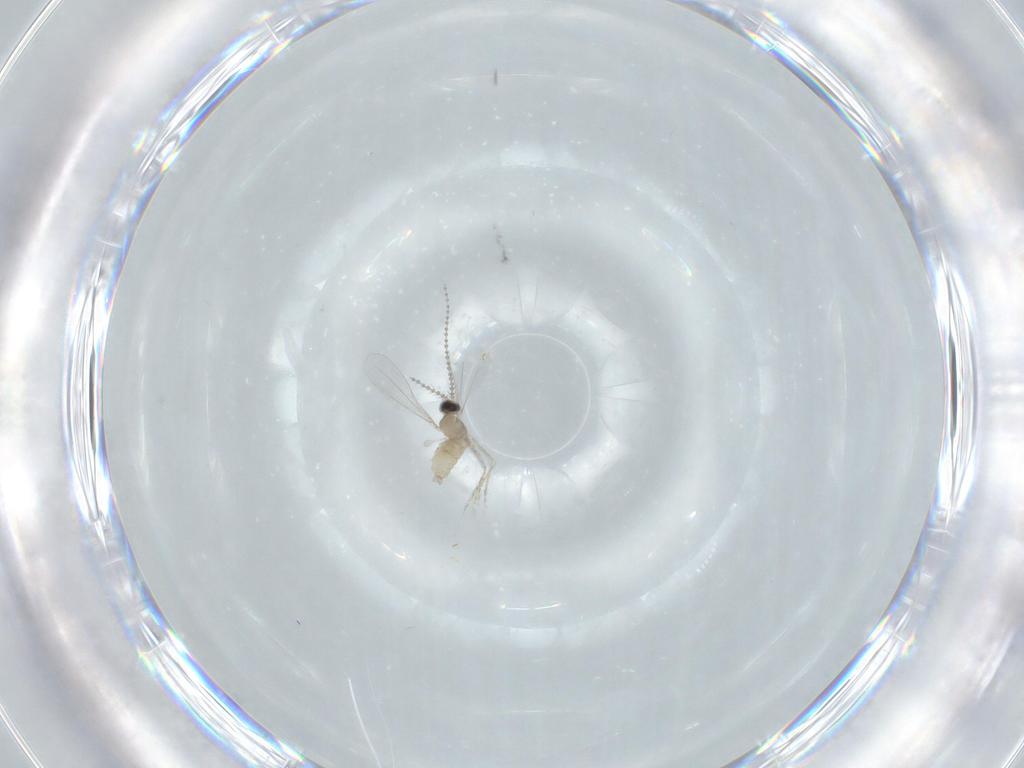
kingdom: Animalia
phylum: Arthropoda
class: Insecta
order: Diptera
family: Cecidomyiidae
